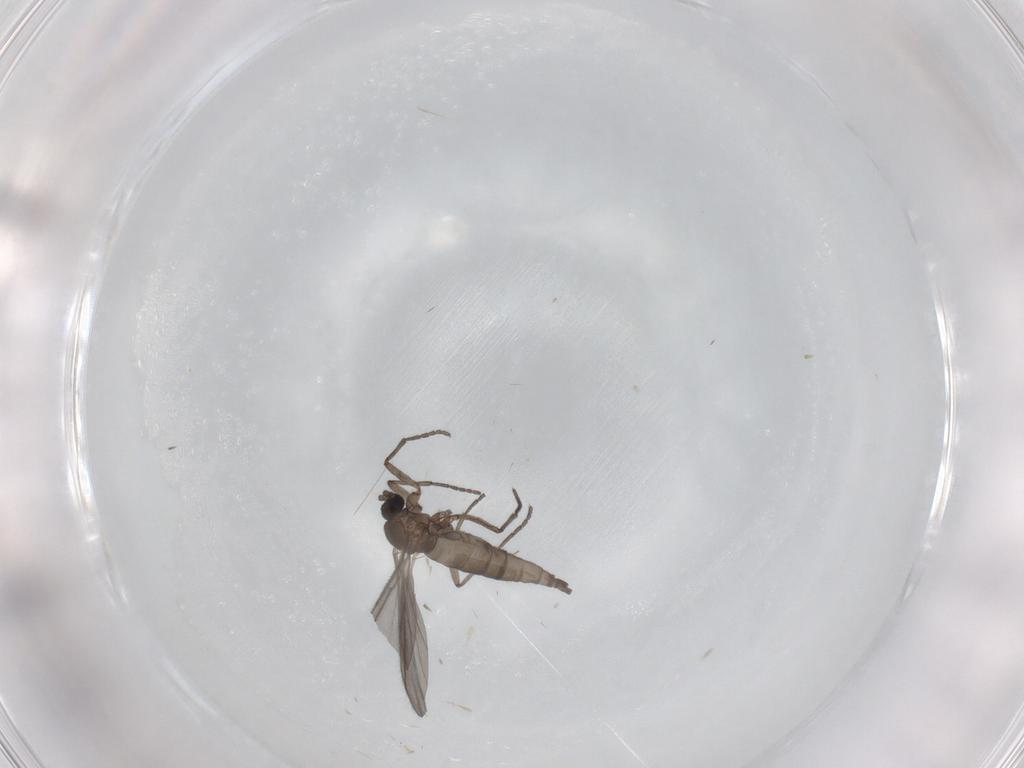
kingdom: Animalia
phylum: Arthropoda
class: Insecta
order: Diptera
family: Sciaridae
